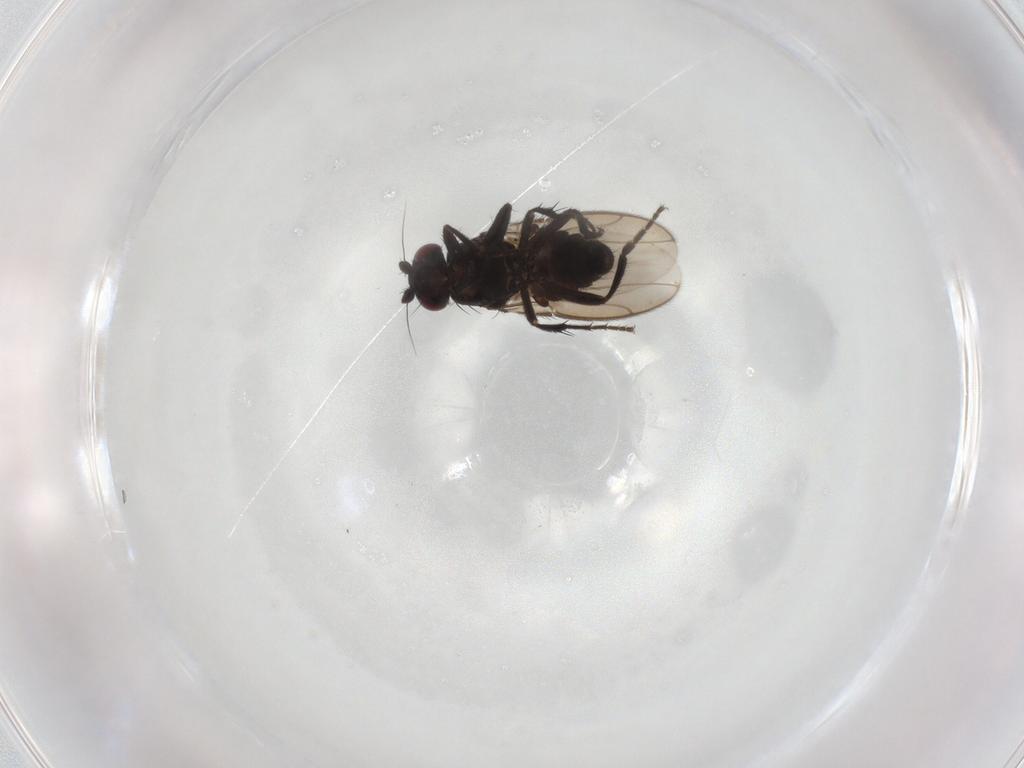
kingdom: Animalia
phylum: Arthropoda
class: Insecta
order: Diptera
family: Sphaeroceridae
